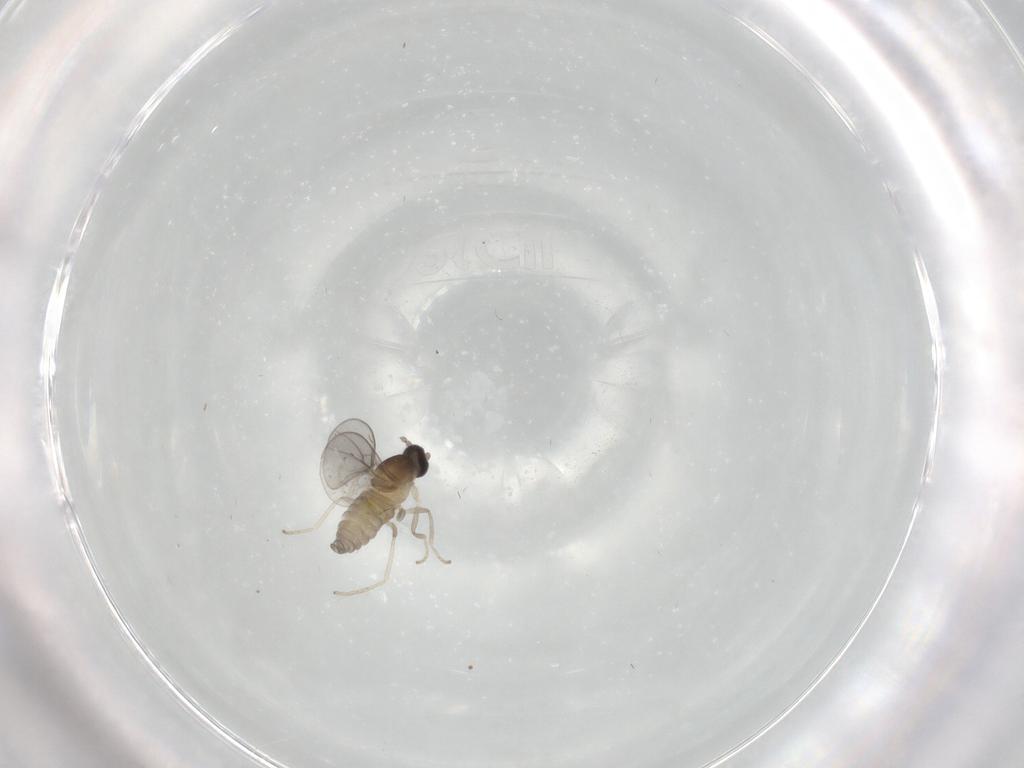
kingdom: Animalia
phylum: Arthropoda
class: Insecta
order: Diptera
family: Cecidomyiidae
